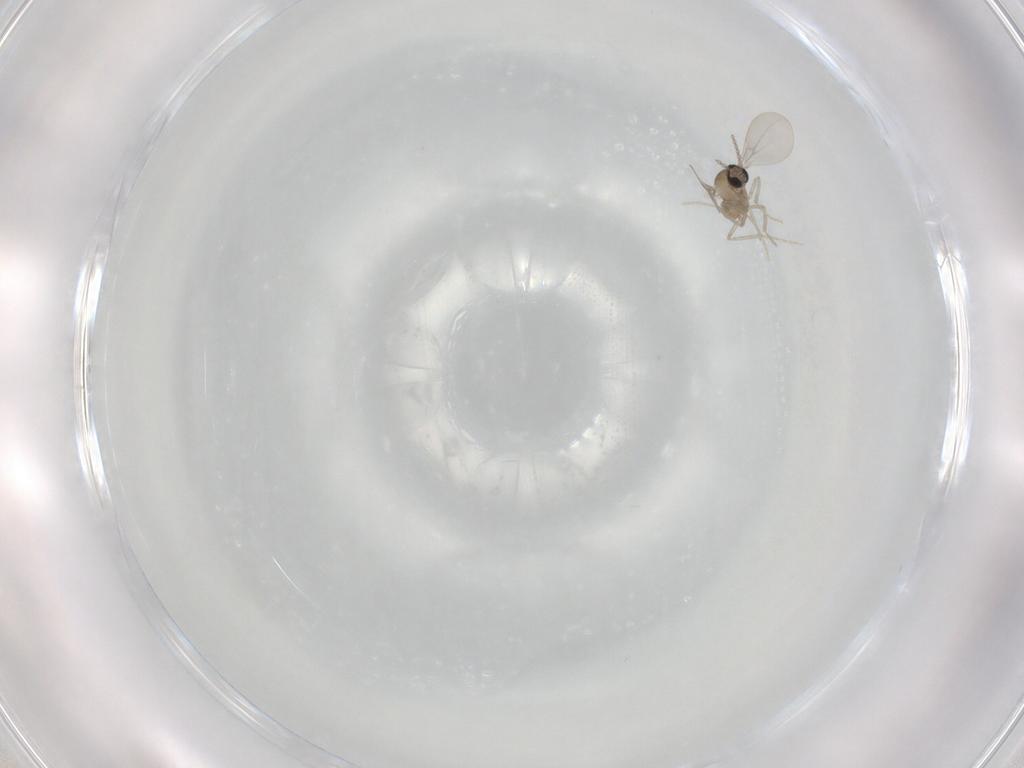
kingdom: Animalia
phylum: Arthropoda
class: Insecta
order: Diptera
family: Cecidomyiidae
